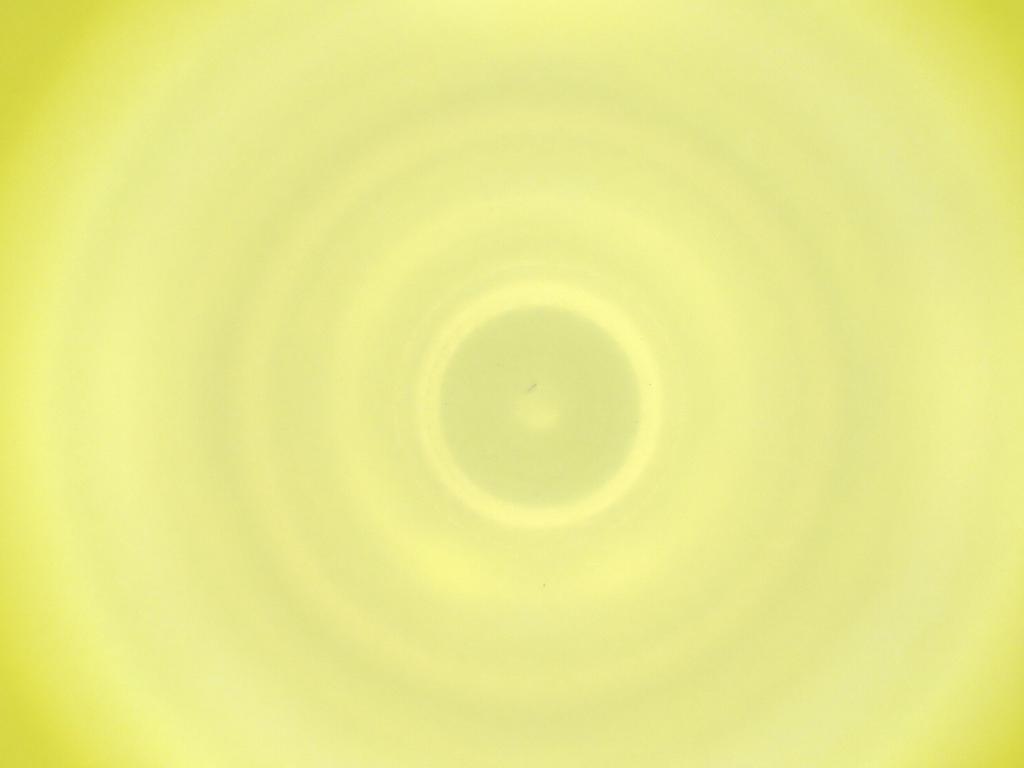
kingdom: Animalia
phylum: Arthropoda
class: Insecta
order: Diptera
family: Cecidomyiidae
